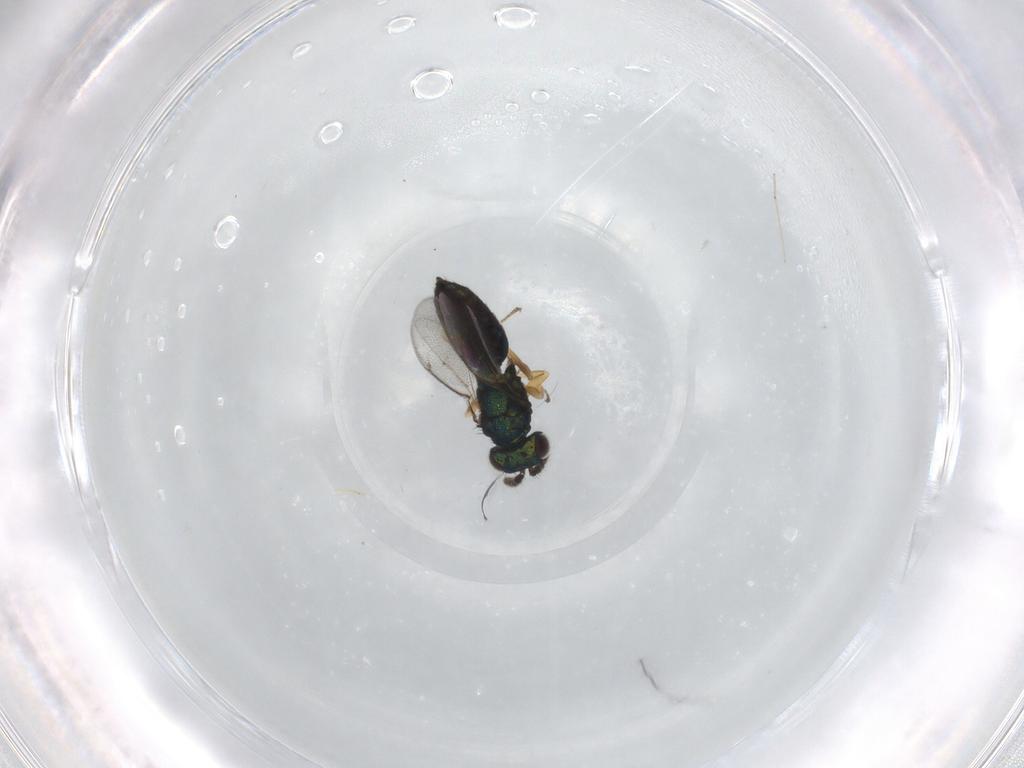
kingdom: Animalia
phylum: Arthropoda
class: Insecta
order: Hymenoptera
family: Eulophidae
